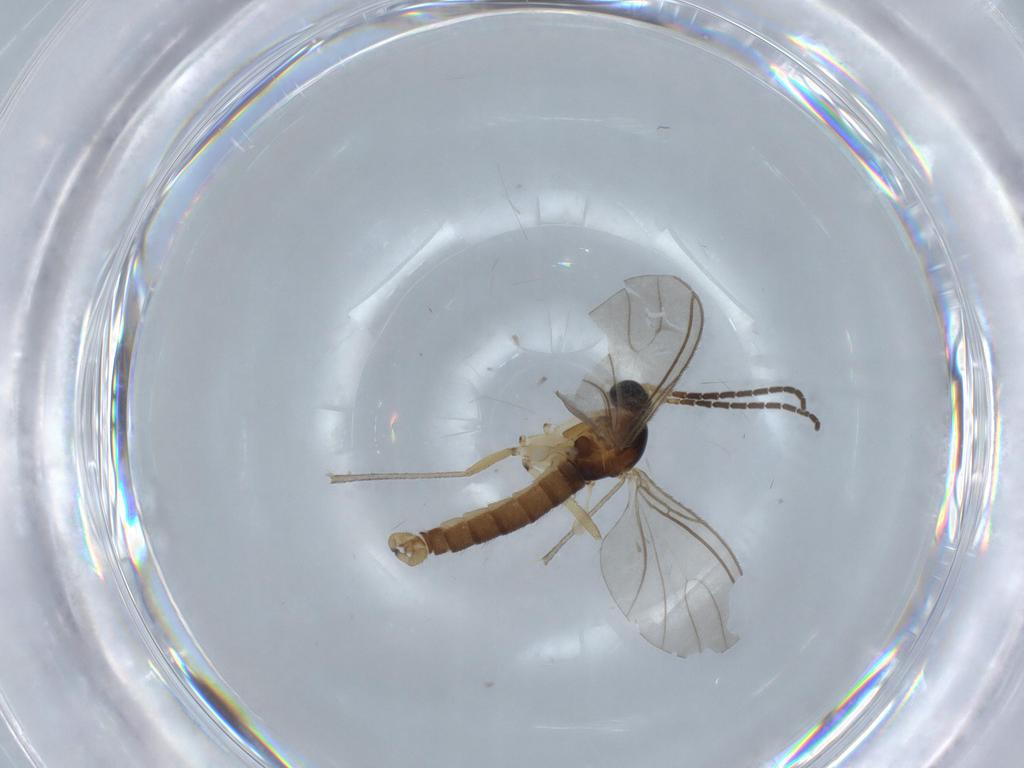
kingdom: Animalia
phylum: Arthropoda
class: Insecta
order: Diptera
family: Sciaridae
